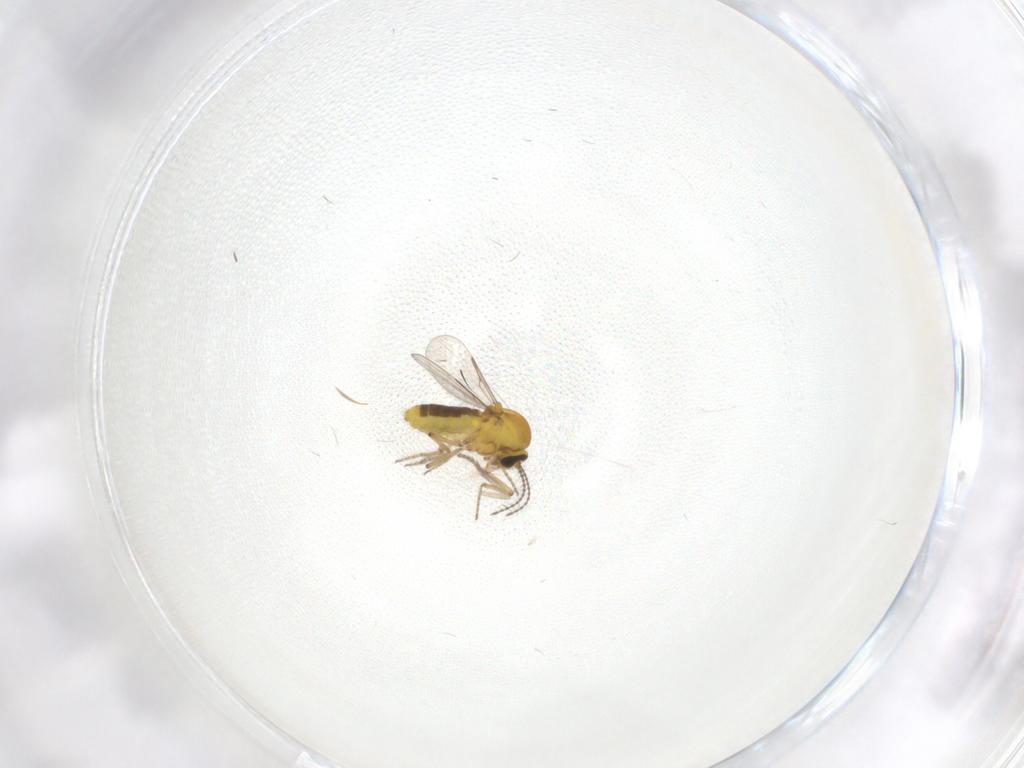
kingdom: Animalia
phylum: Arthropoda
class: Insecta
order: Diptera
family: Ceratopogonidae
